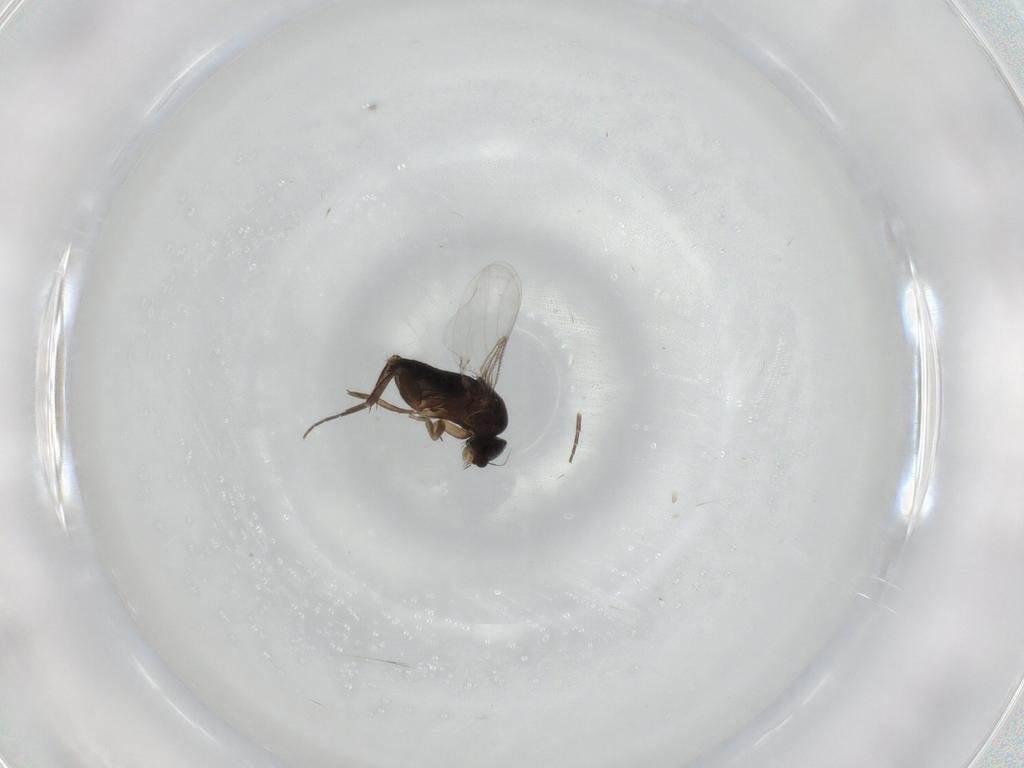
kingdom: Animalia
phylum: Arthropoda
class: Insecta
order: Diptera
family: Phoridae
